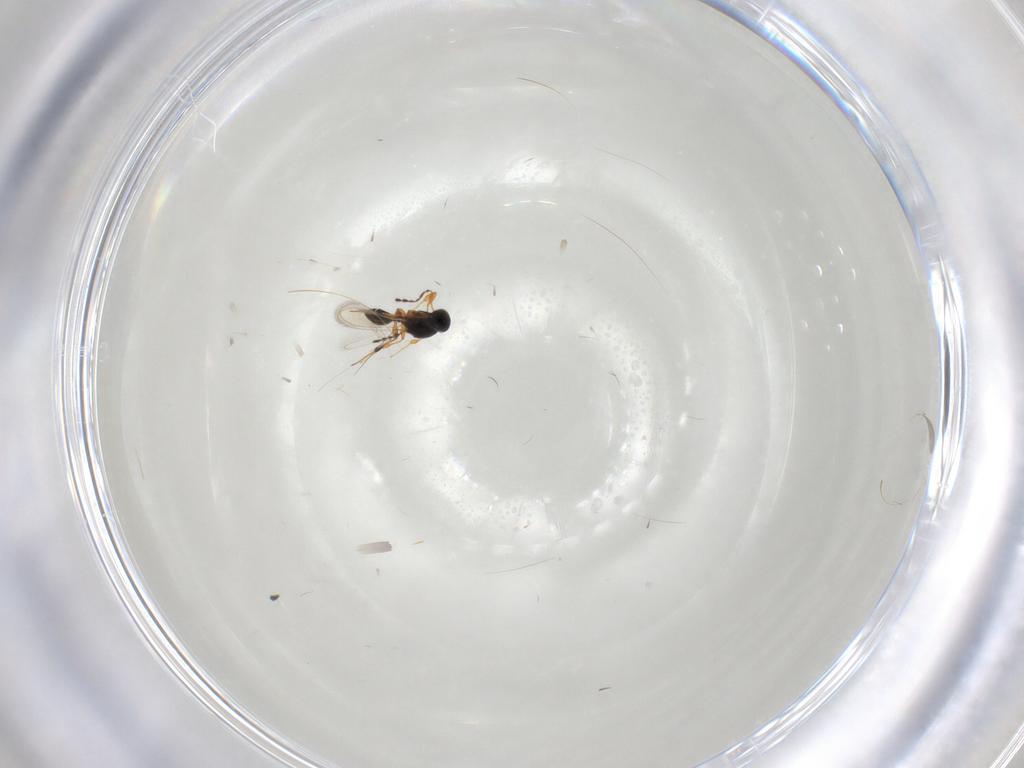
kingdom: Animalia
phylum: Arthropoda
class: Insecta
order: Hymenoptera
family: Platygastridae
